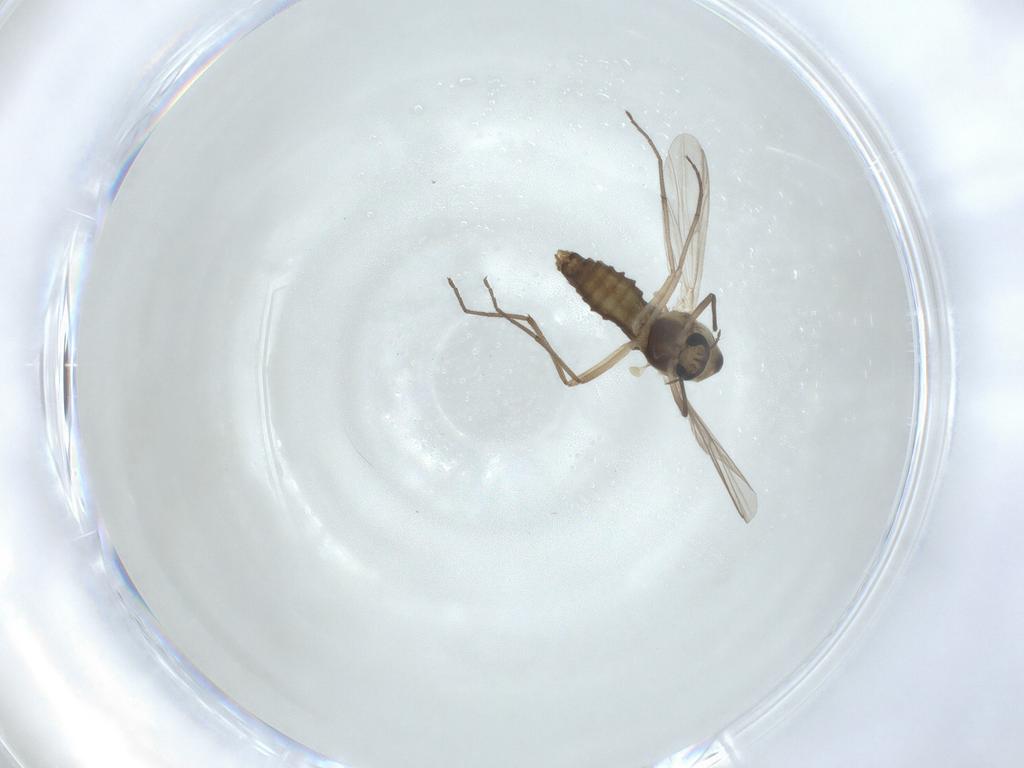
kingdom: Animalia
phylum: Arthropoda
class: Insecta
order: Diptera
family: Chironomidae
